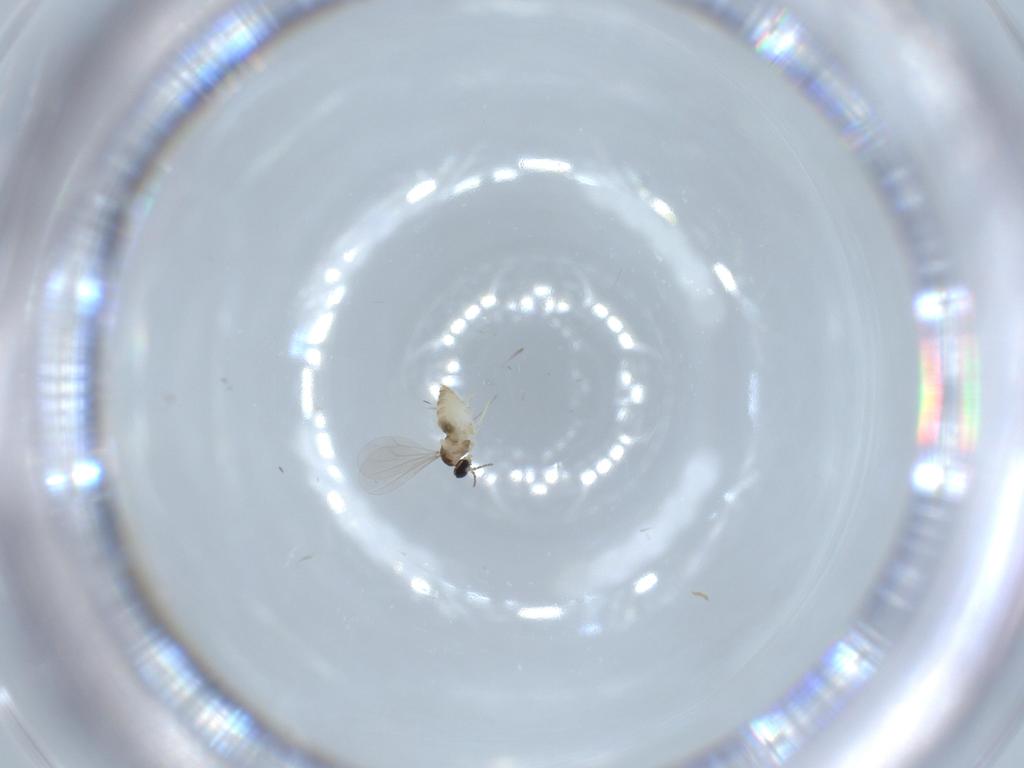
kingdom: Animalia
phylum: Arthropoda
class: Insecta
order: Diptera
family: Cecidomyiidae
